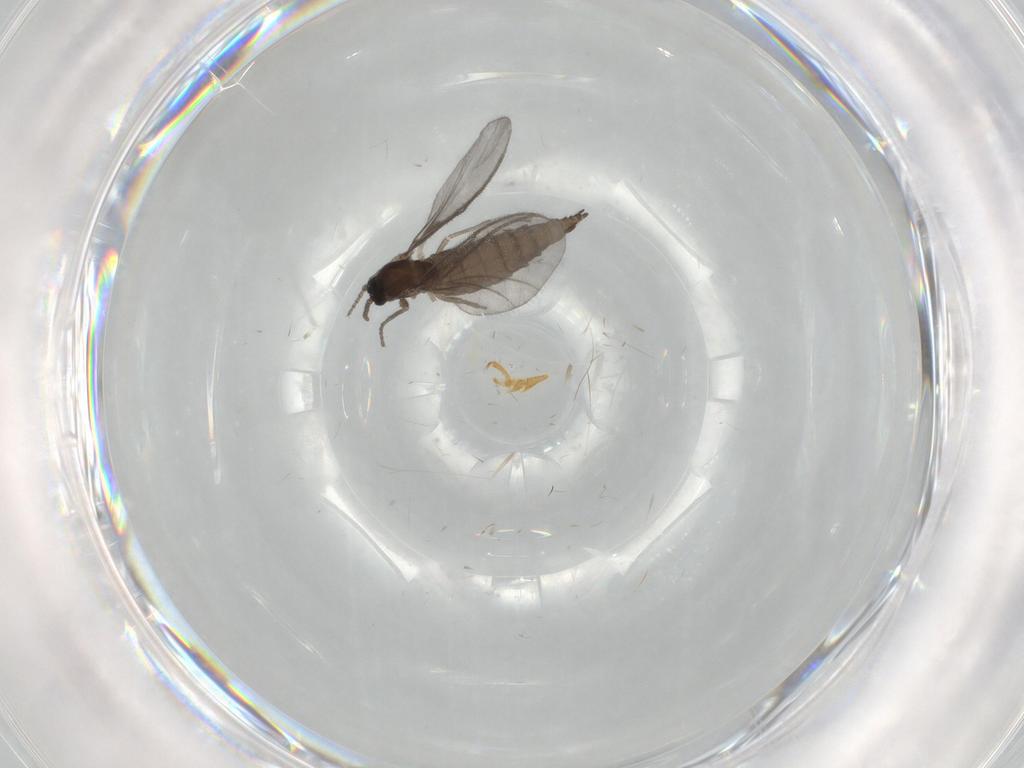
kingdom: Animalia
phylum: Arthropoda
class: Insecta
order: Diptera
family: Tabanidae
